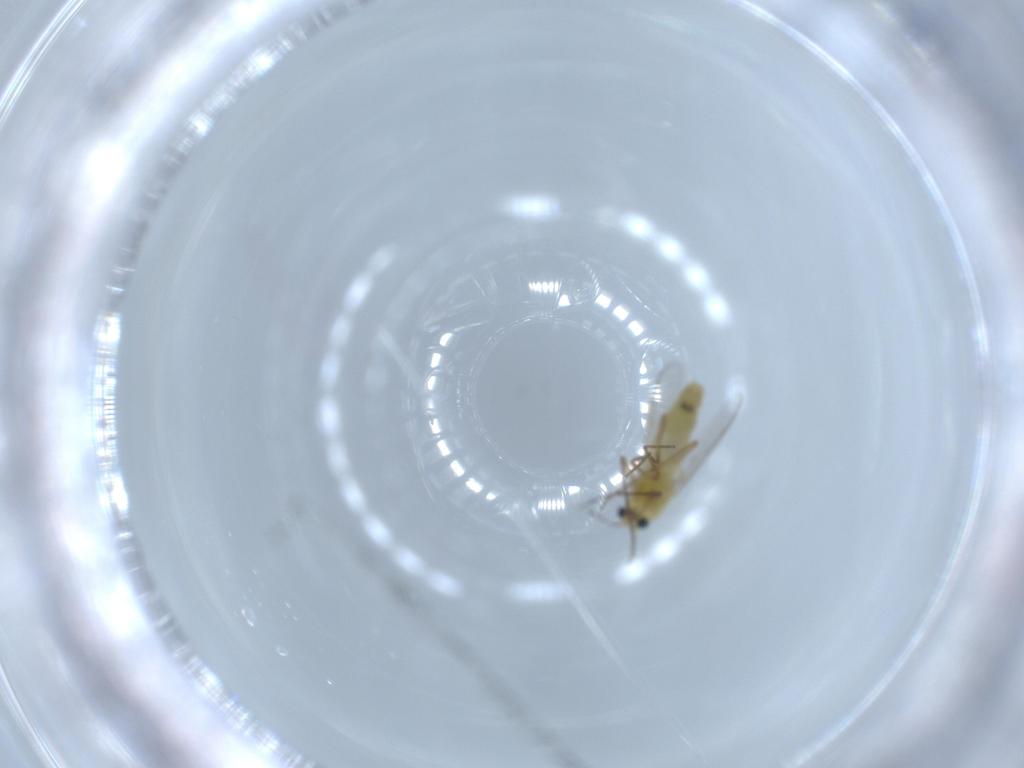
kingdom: Animalia
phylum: Arthropoda
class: Insecta
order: Diptera
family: Chironomidae
